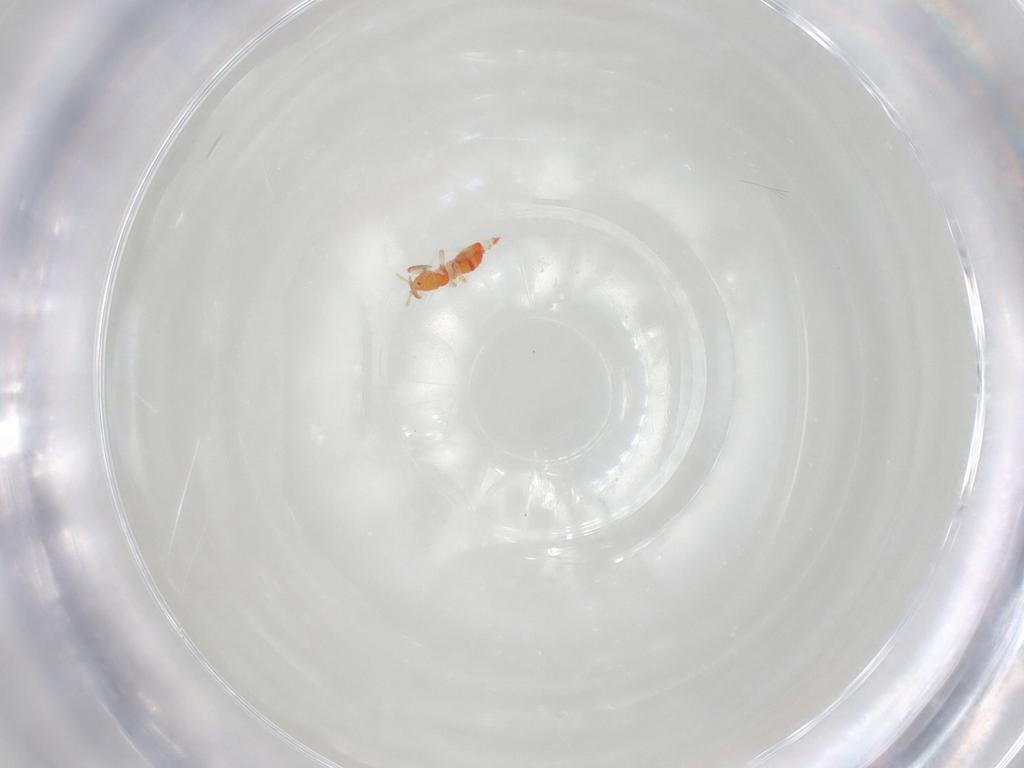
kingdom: Animalia
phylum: Arthropoda
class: Insecta
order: Thysanoptera
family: Aeolothripidae
